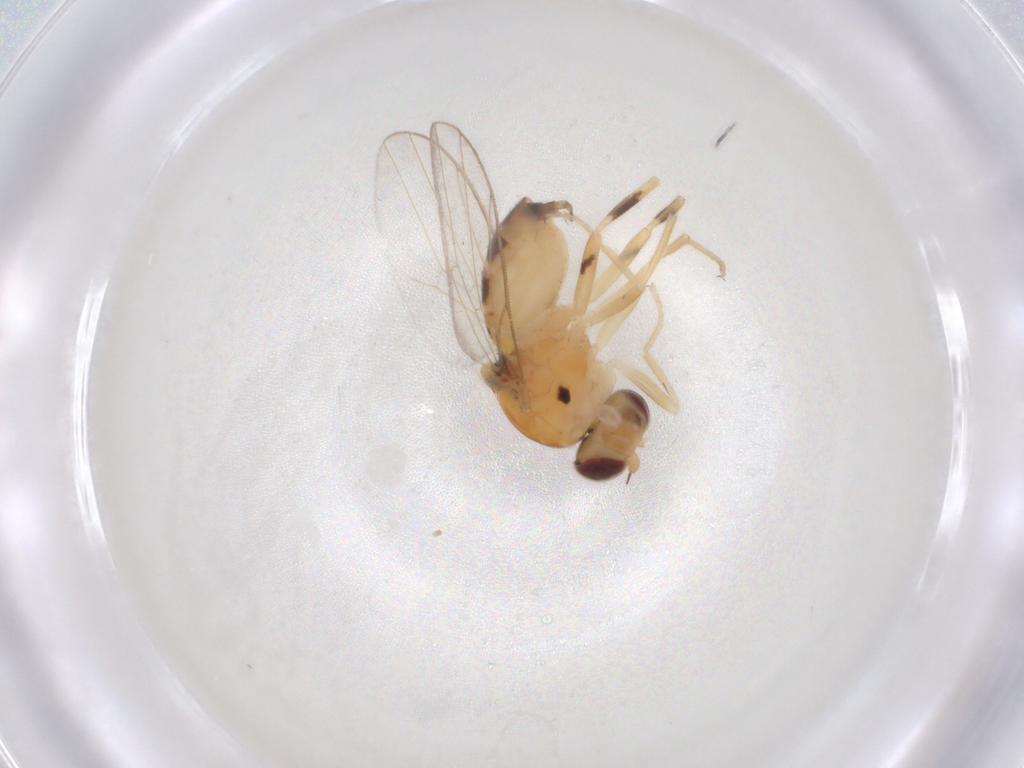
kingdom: Animalia
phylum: Arthropoda
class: Insecta
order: Diptera
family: Chloropidae
